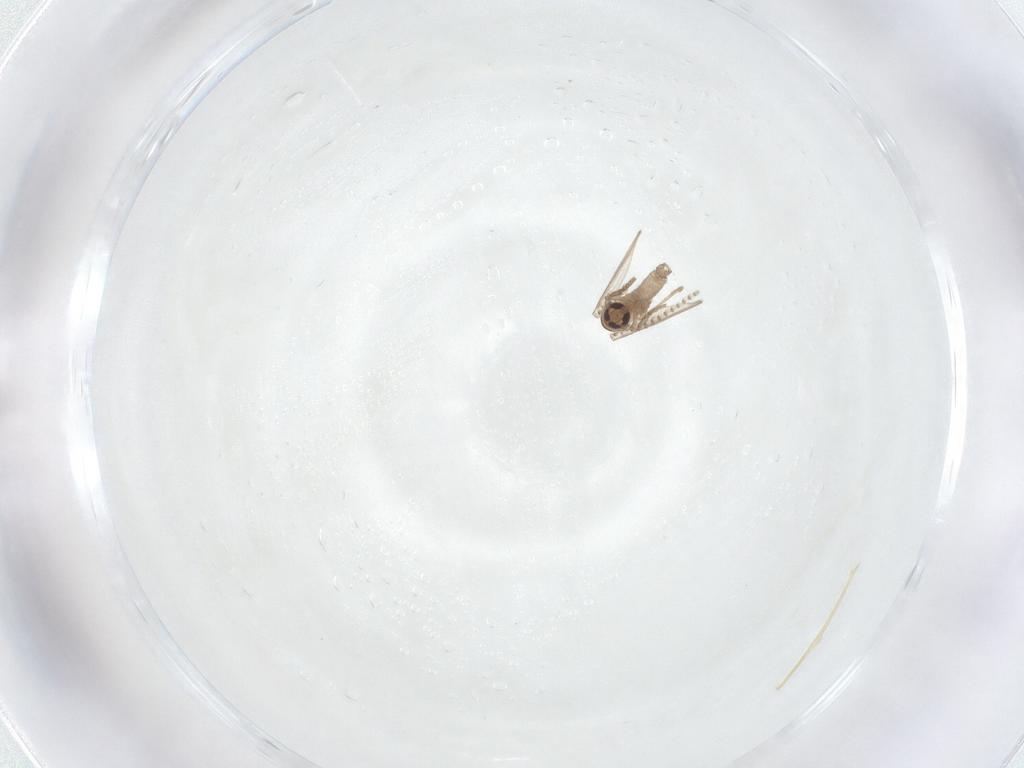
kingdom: Animalia
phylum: Arthropoda
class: Insecta
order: Diptera
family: Psychodidae
